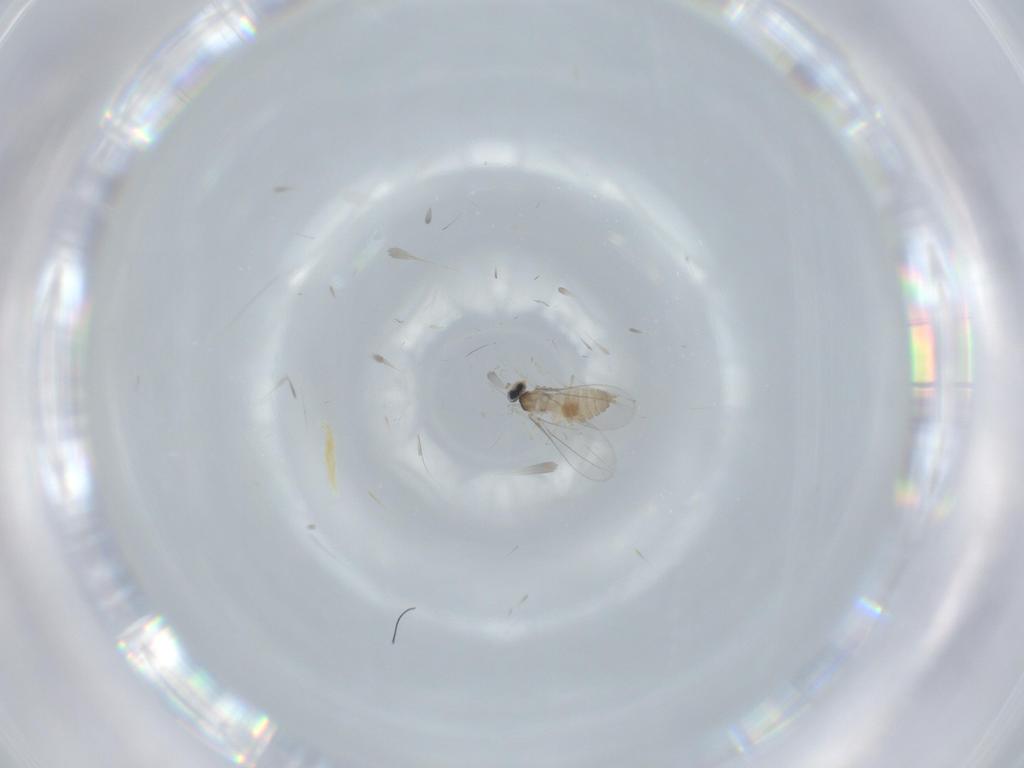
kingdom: Animalia
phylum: Arthropoda
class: Insecta
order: Diptera
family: Cecidomyiidae
